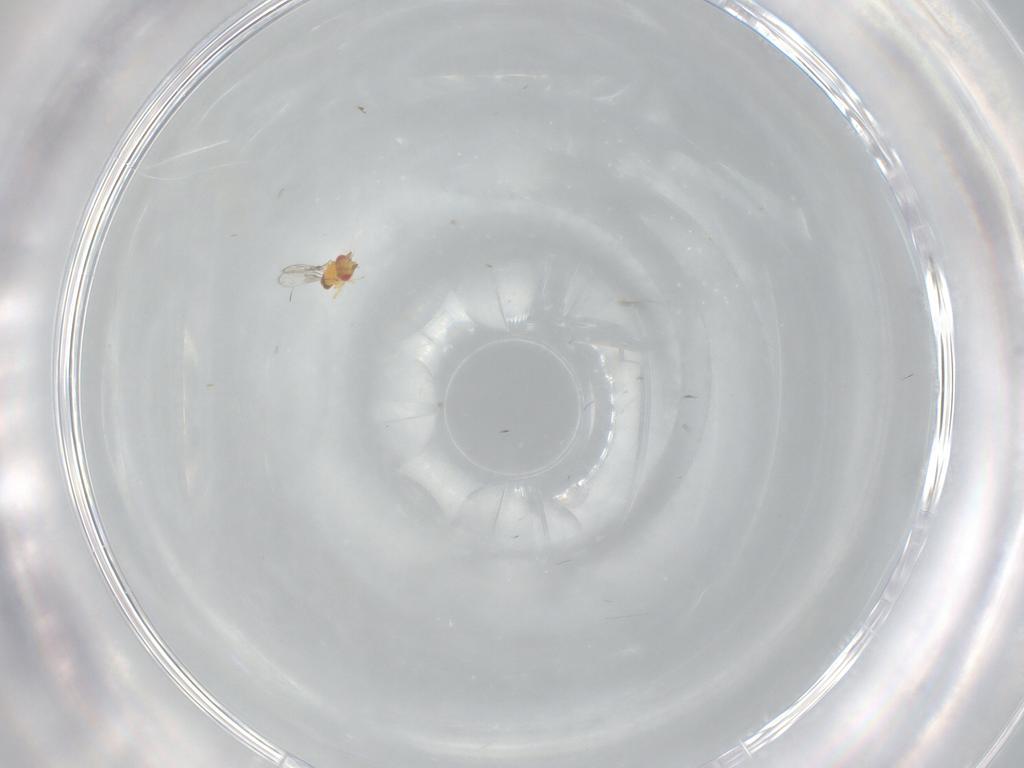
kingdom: Animalia
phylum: Arthropoda
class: Insecta
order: Hymenoptera
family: Trichogrammatidae
